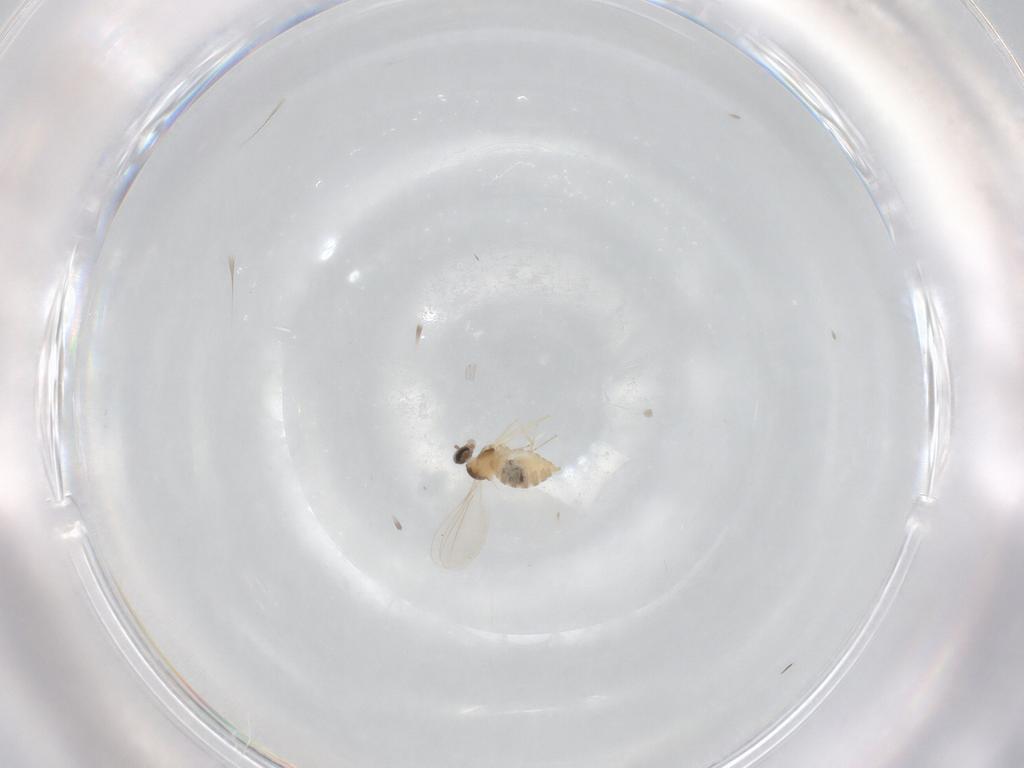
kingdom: Animalia
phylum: Arthropoda
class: Insecta
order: Diptera
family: Cecidomyiidae
